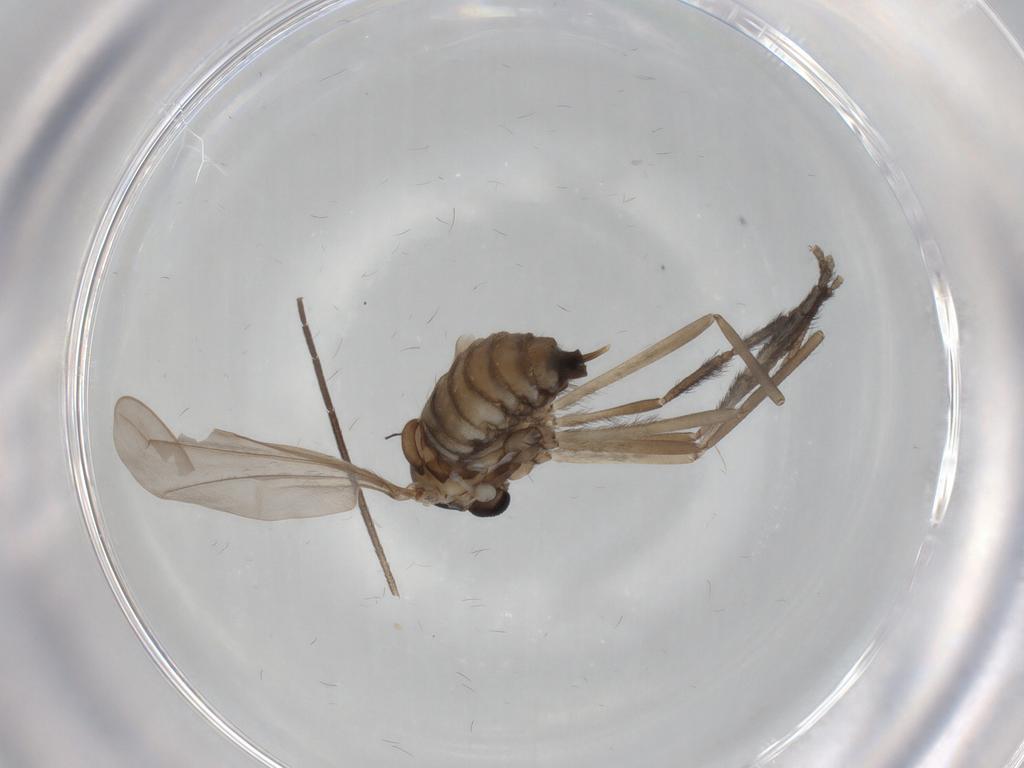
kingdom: Animalia
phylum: Arthropoda
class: Insecta
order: Diptera
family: Cecidomyiidae
